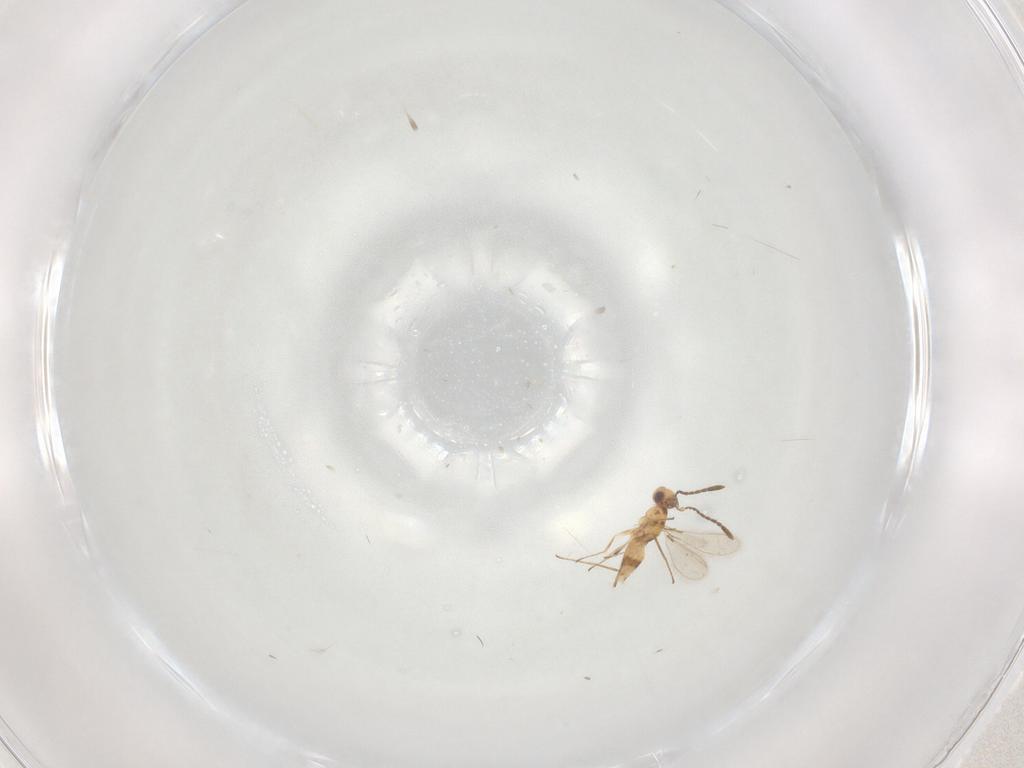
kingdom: Animalia
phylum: Arthropoda
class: Insecta
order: Hymenoptera
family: Mymaridae
